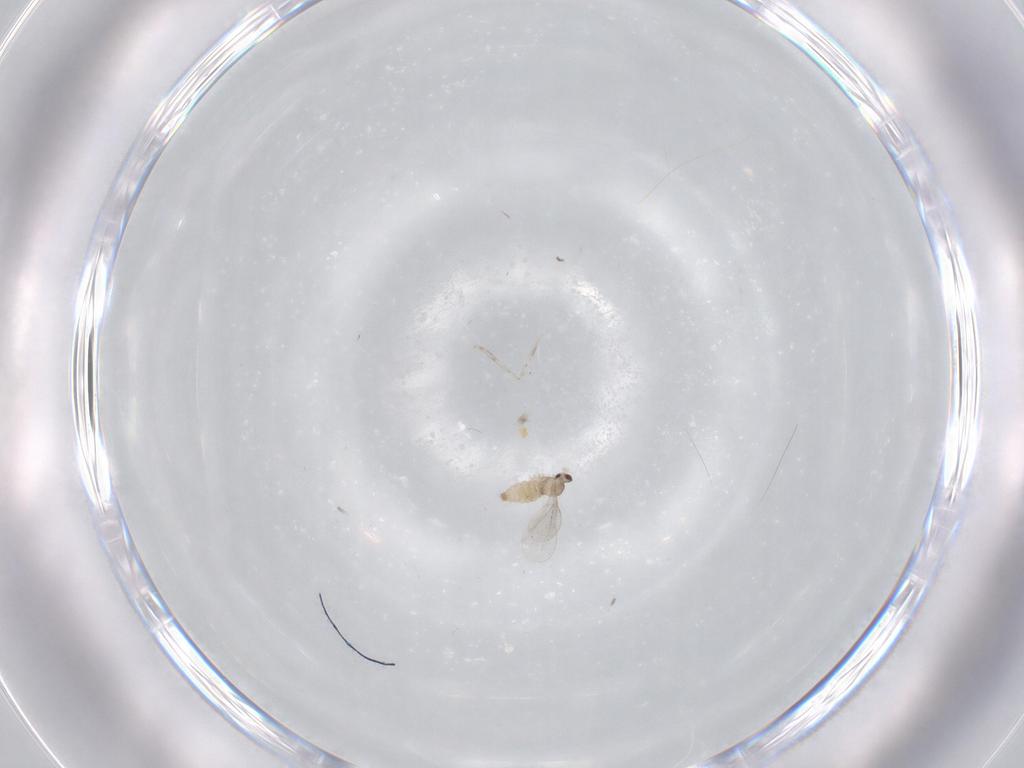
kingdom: Animalia
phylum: Arthropoda
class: Insecta
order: Diptera
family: Cecidomyiidae
